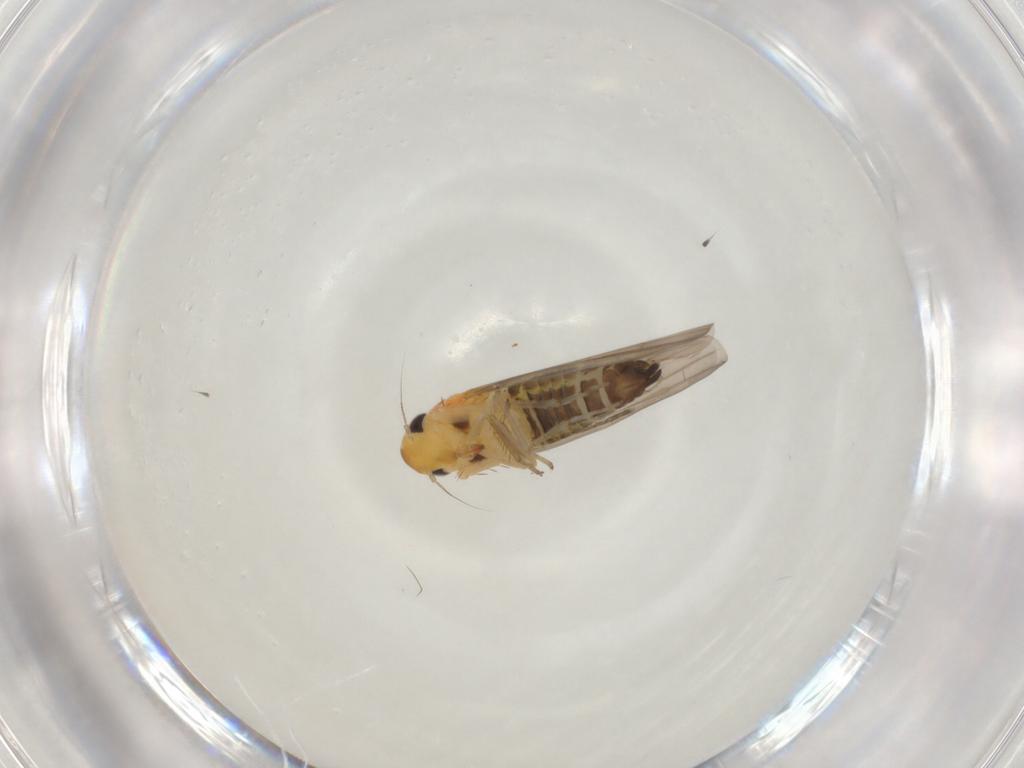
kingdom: Animalia
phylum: Arthropoda
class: Insecta
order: Hemiptera
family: Cicadellidae
